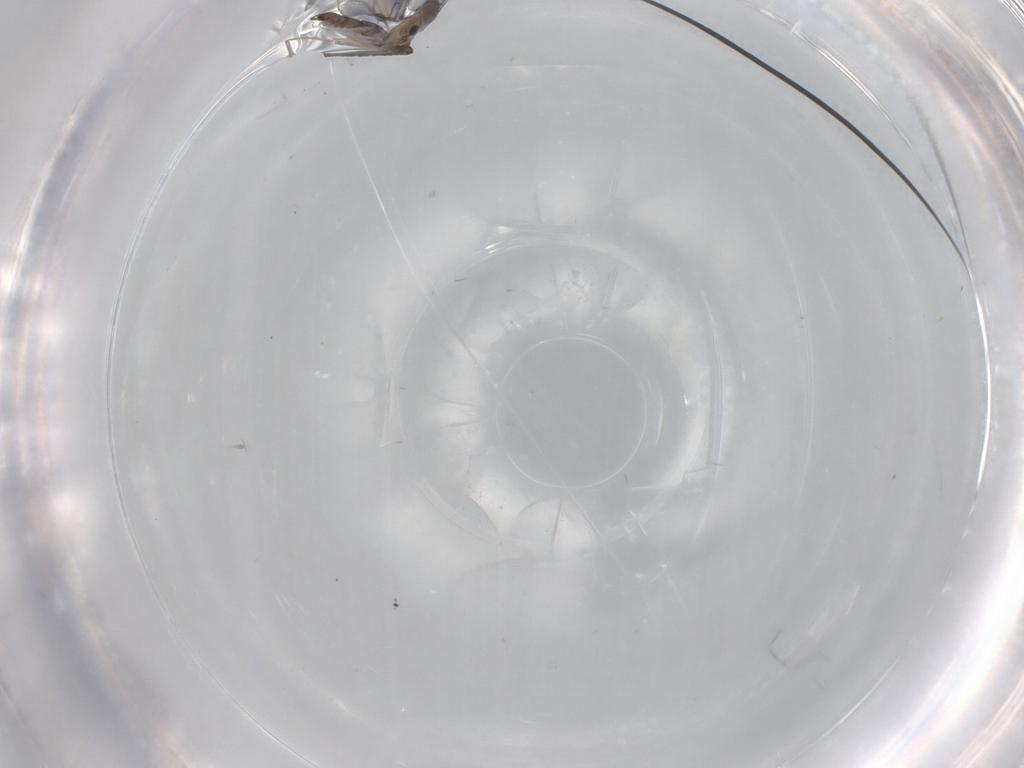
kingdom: Animalia
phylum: Arthropoda
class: Insecta
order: Diptera
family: Sciaridae
